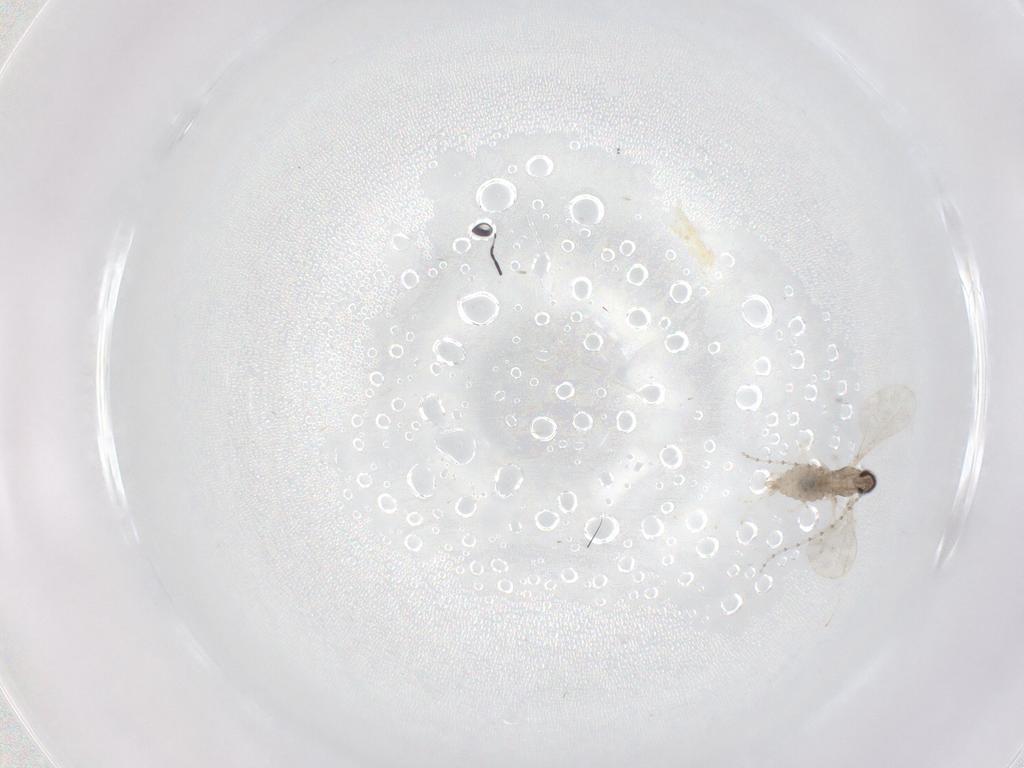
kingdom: Animalia
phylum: Arthropoda
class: Insecta
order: Diptera
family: Cecidomyiidae
